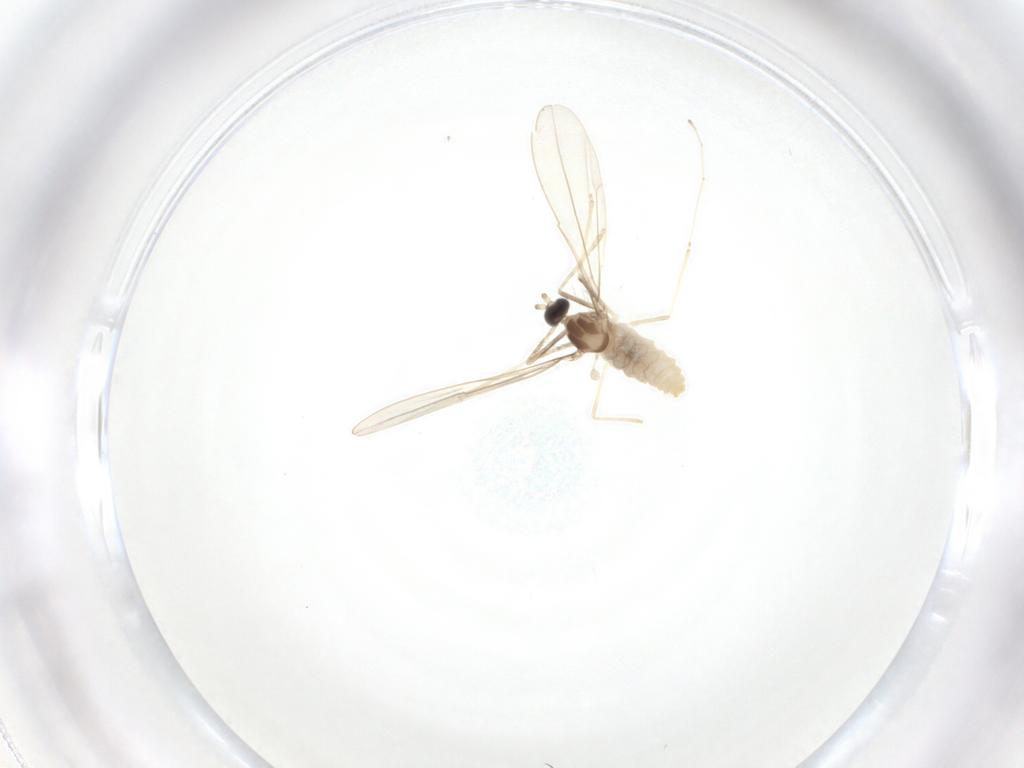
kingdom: Animalia
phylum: Arthropoda
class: Insecta
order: Diptera
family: Cecidomyiidae
